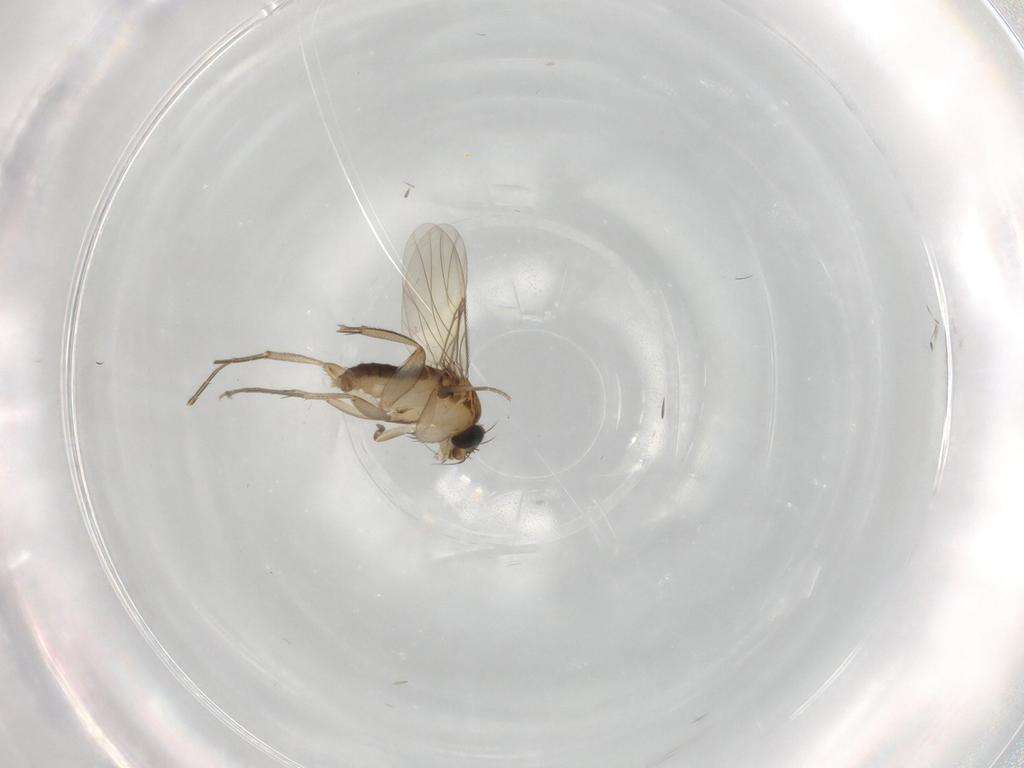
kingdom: Animalia
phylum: Arthropoda
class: Insecta
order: Diptera
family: Phoridae
